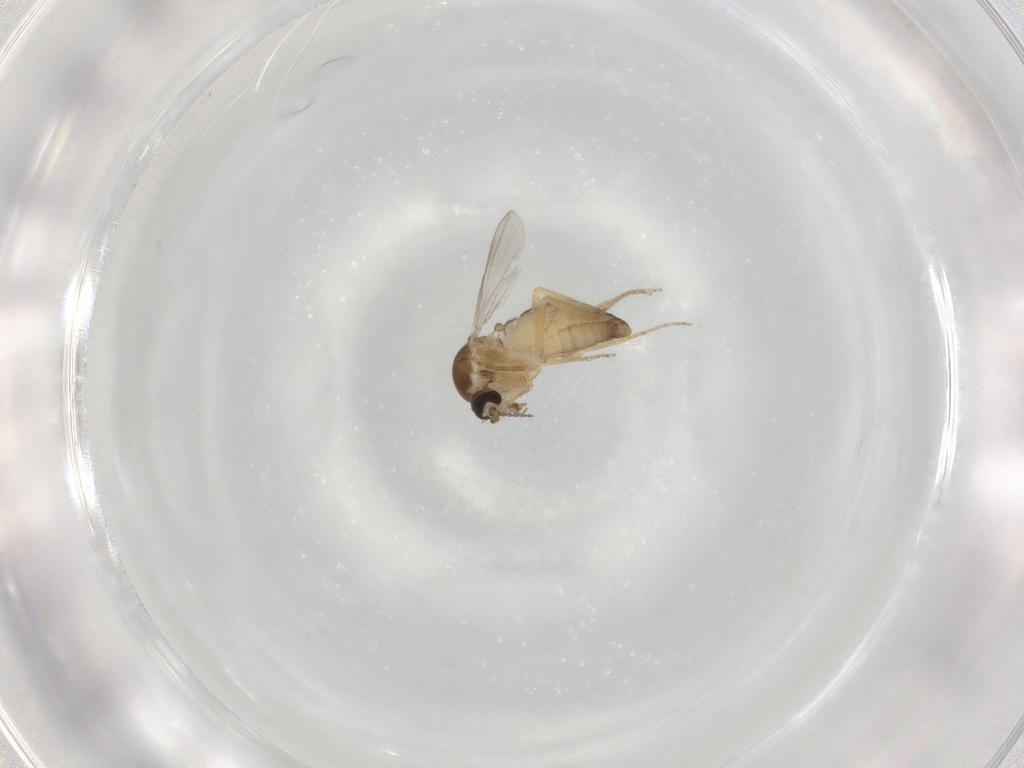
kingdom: Animalia
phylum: Arthropoda
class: Insecta
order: Diptera
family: Ceratopogonidae
